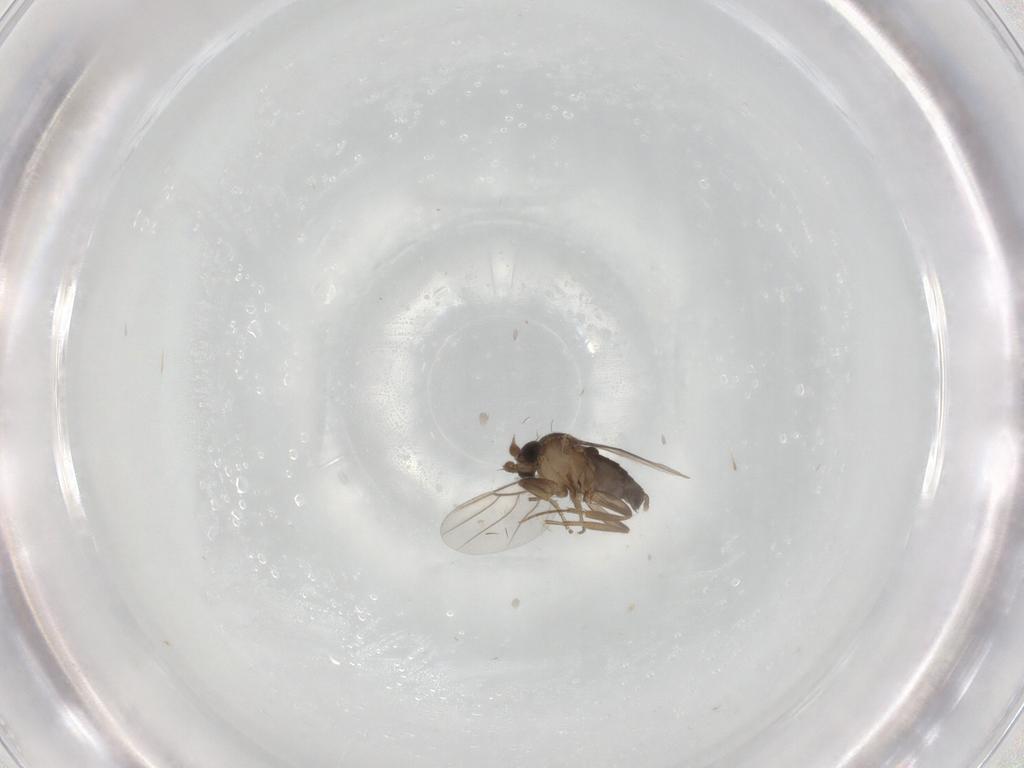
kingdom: Animalia
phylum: Arthropoda
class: Insecta
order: Diptera
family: Phoridae
